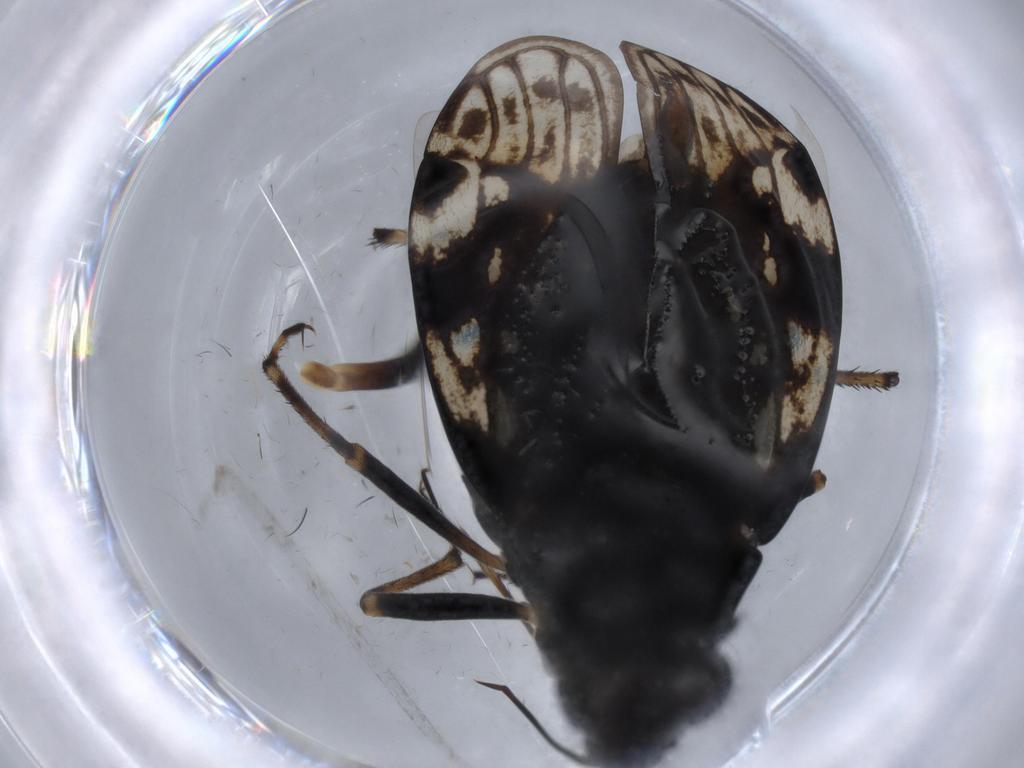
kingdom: Animalia
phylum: Arthropoda
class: Insecta
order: Hemiptera
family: Saldidae
